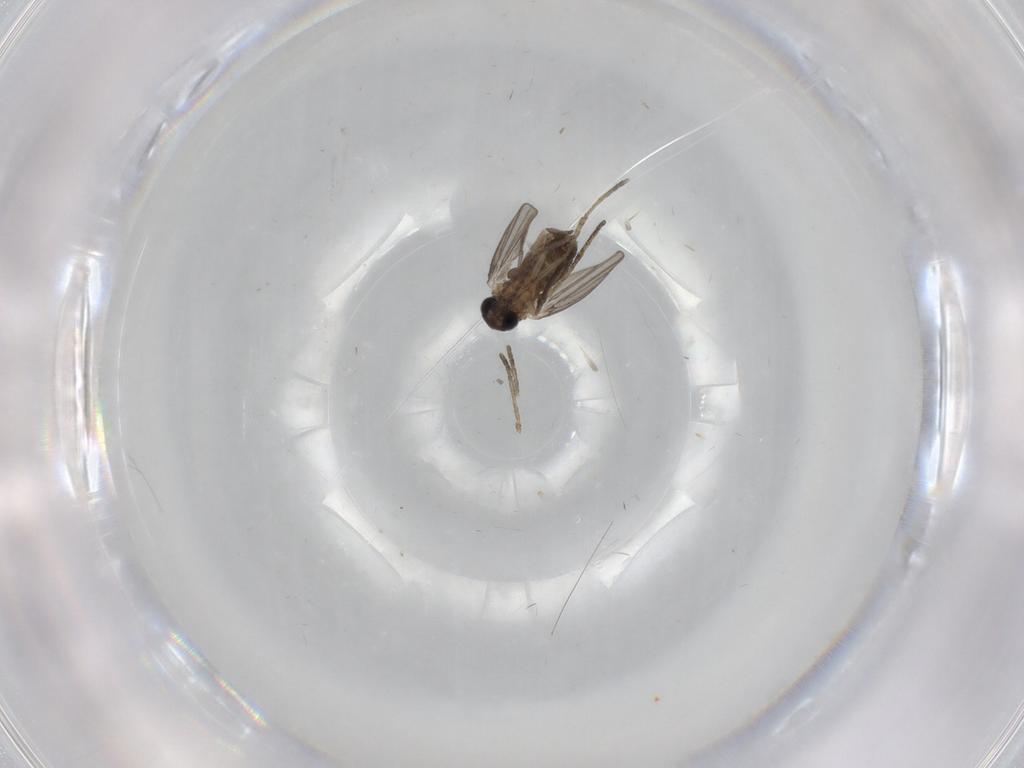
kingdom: Animalia
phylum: Arthropoda
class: Insecta
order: Diptera
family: Sciaridae
